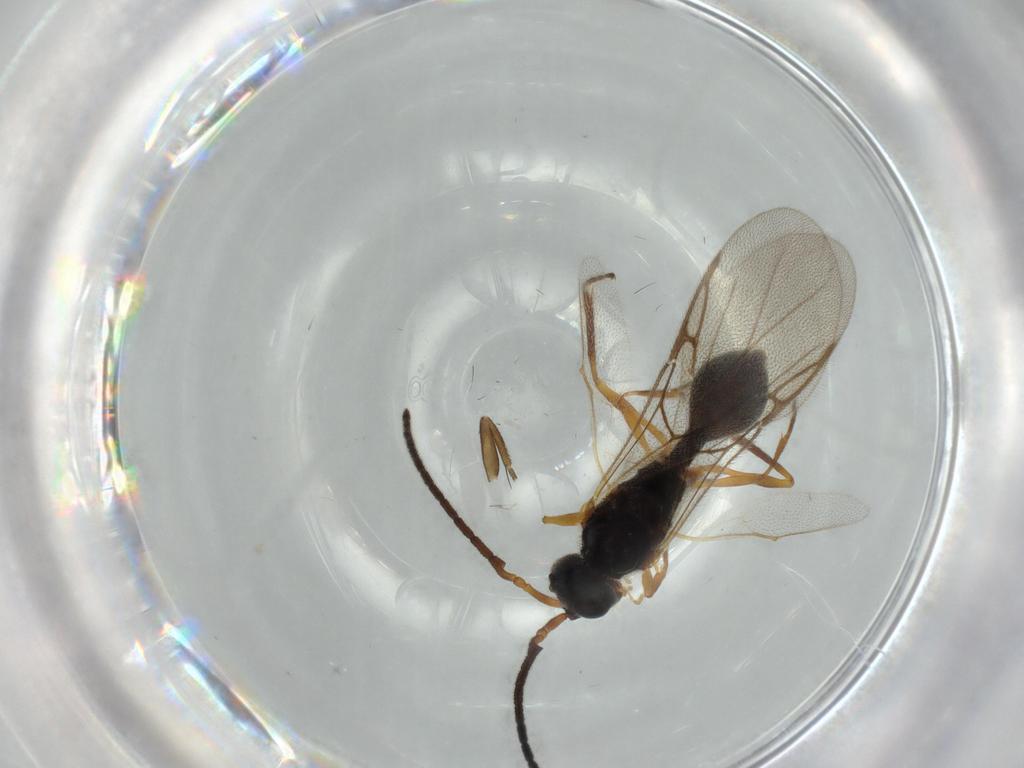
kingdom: Animalia
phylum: Arthropoda
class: Insecta
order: Hymenoptera
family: Diapriidae
